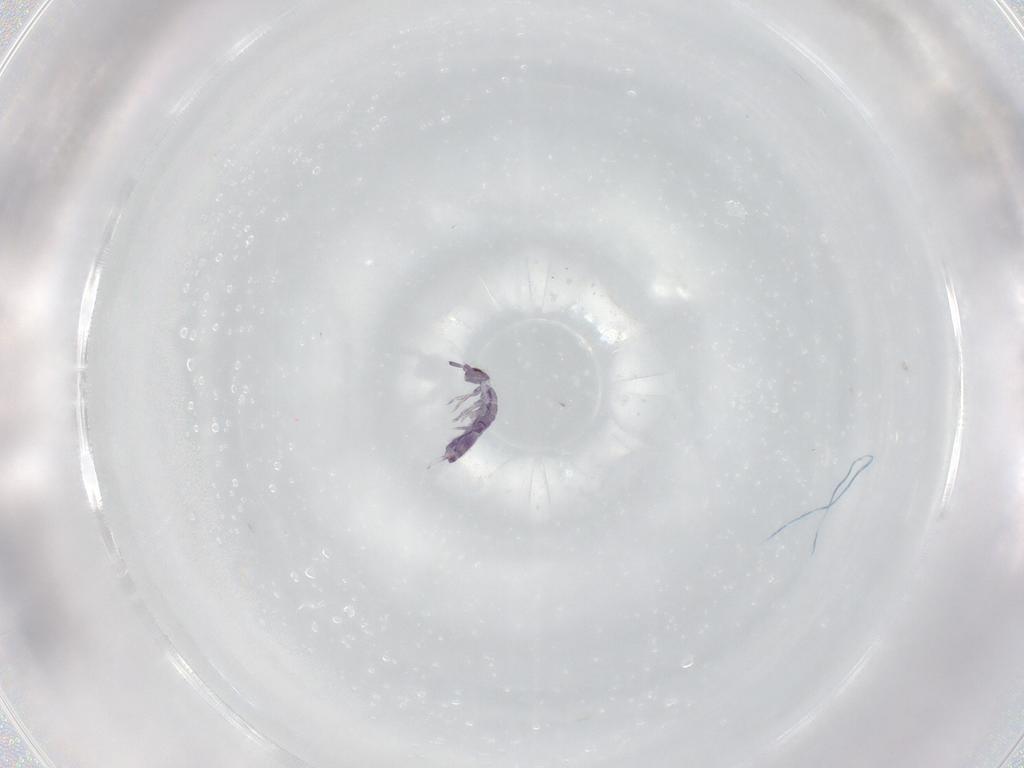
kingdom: Animalia
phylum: Arthropoda
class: Collembola
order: Entomobryomorpha
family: Entomobryidae
